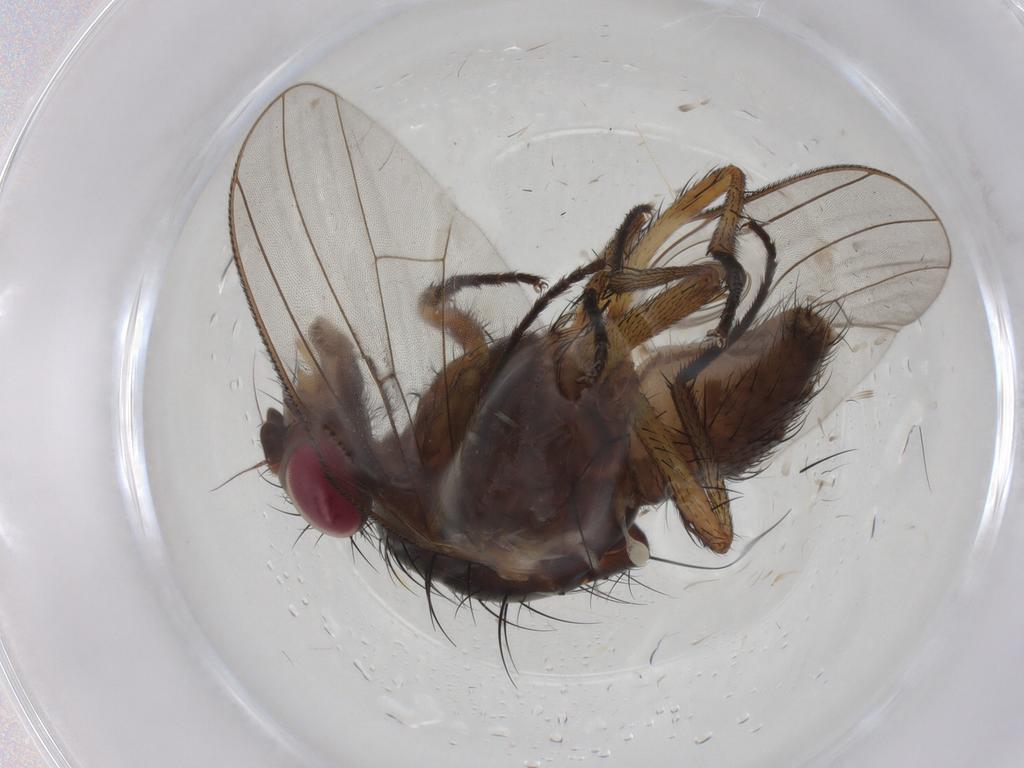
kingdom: Animalia
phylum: Arthropoda
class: Insecta
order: Diptera
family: Anthomyiidae
